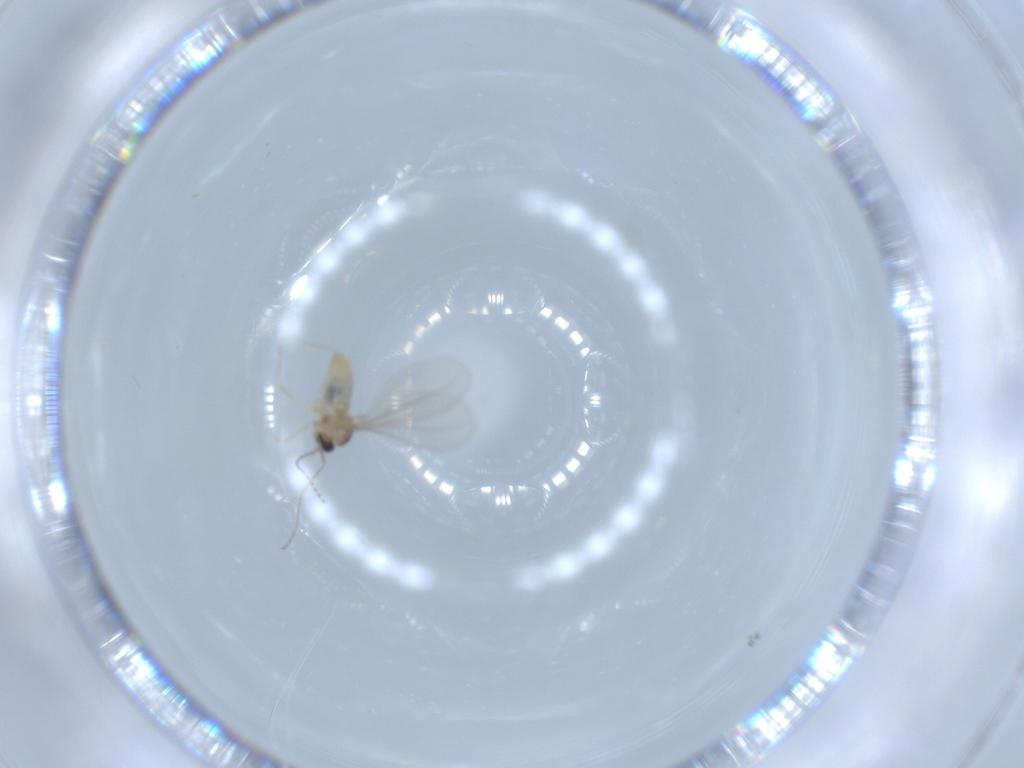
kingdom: Animalia
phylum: Arthropoda
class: Insecta
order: Diptera
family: Cecidomyiidae
